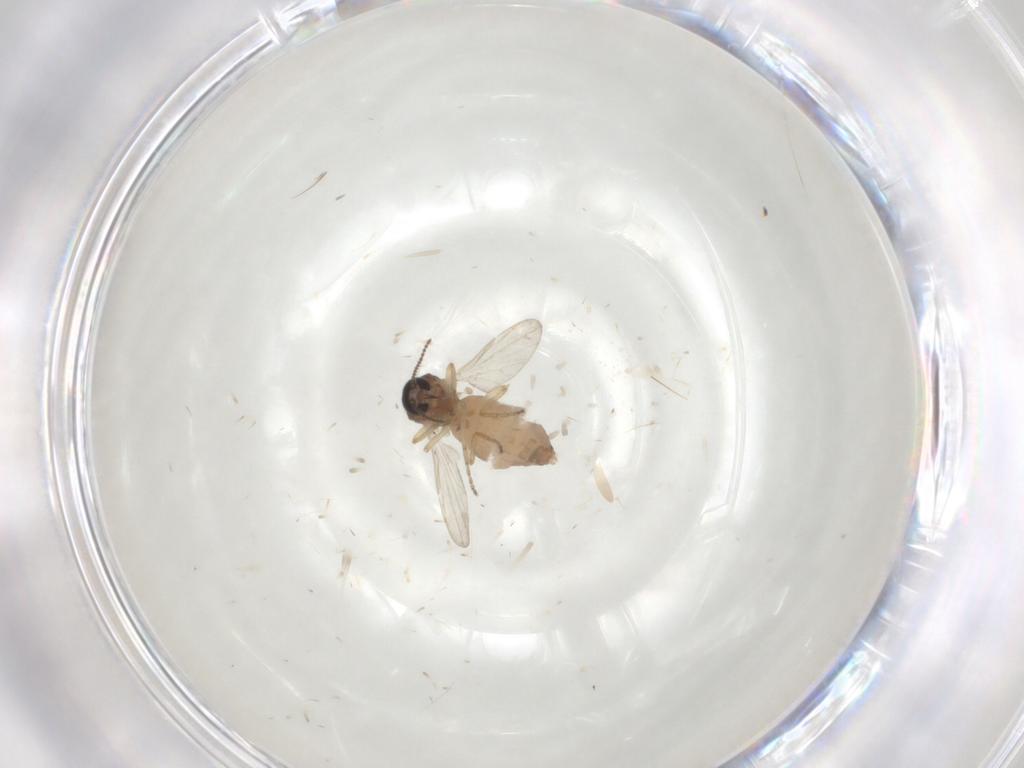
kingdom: Animalia
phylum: Arthropoda
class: Insecta
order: Diptera
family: Ceratopogonidae
